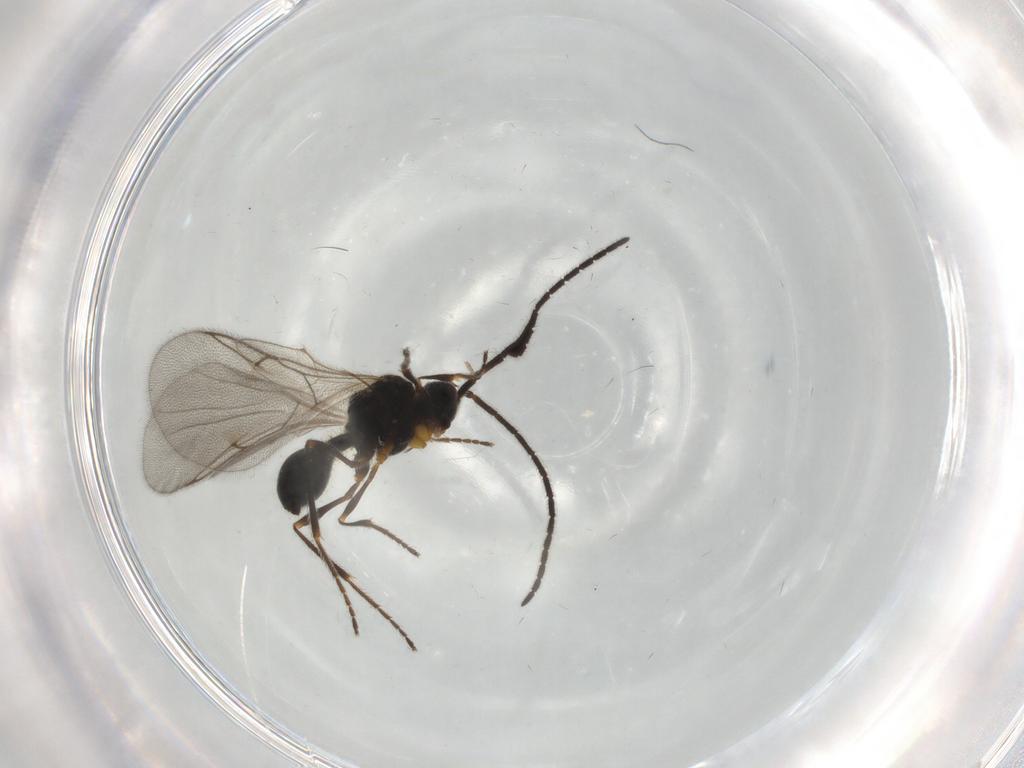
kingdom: Animalia
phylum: Arthropoda
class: Insecta
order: Hymenoptera
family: Diapriidae
